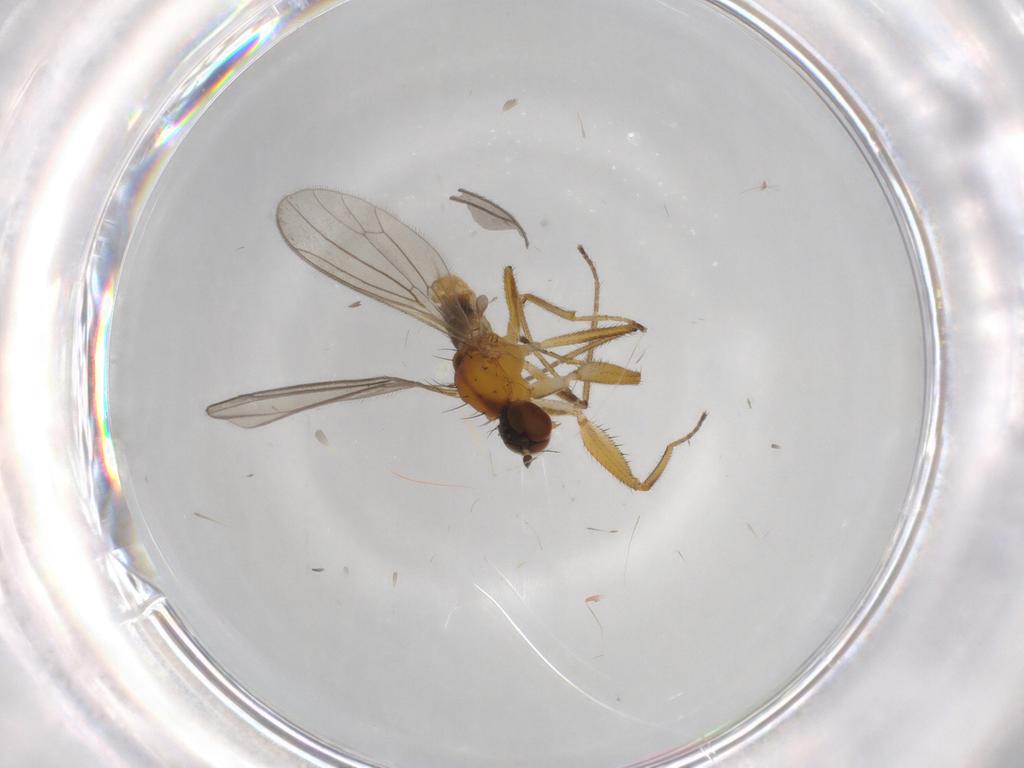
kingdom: Animalia
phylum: Arthropoda
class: Insecta
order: Diptera
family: Empididae
